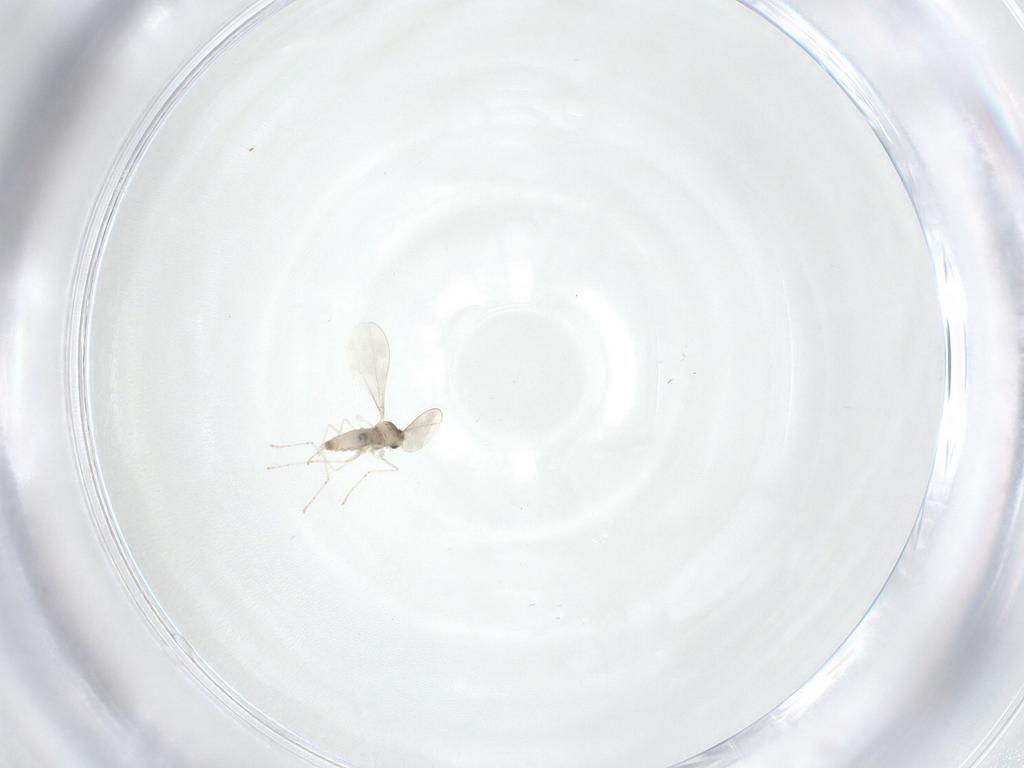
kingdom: Animalia
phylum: Arthropoda
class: Insecta
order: Diptera
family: Cecidomyiidae
